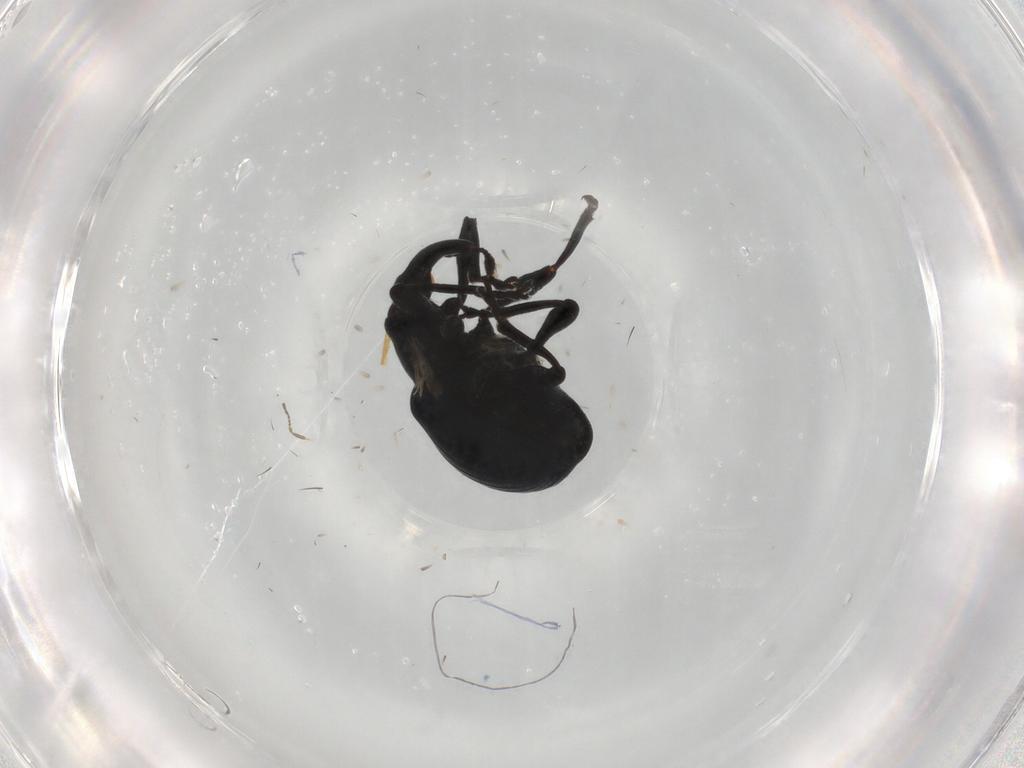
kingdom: Animalia
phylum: Arthropoda
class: Insecta
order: Coleoptera
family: Apionidae
